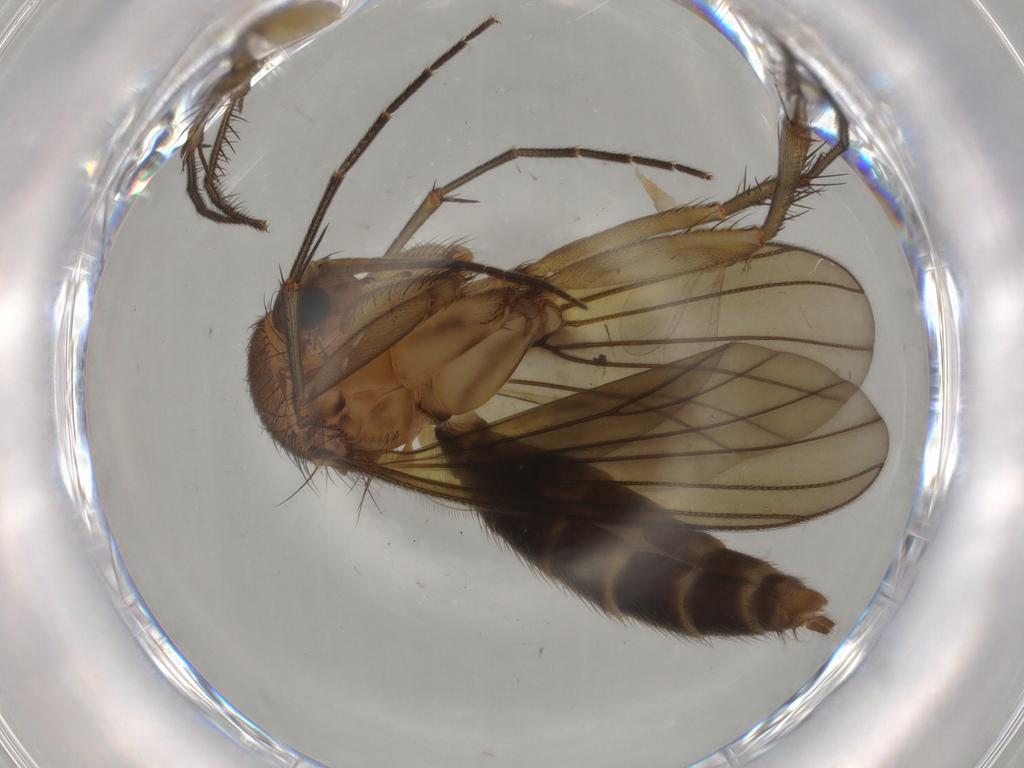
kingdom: Animalia
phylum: Arthropoda
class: Insecta
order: Diptera
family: Mycetophilidae
